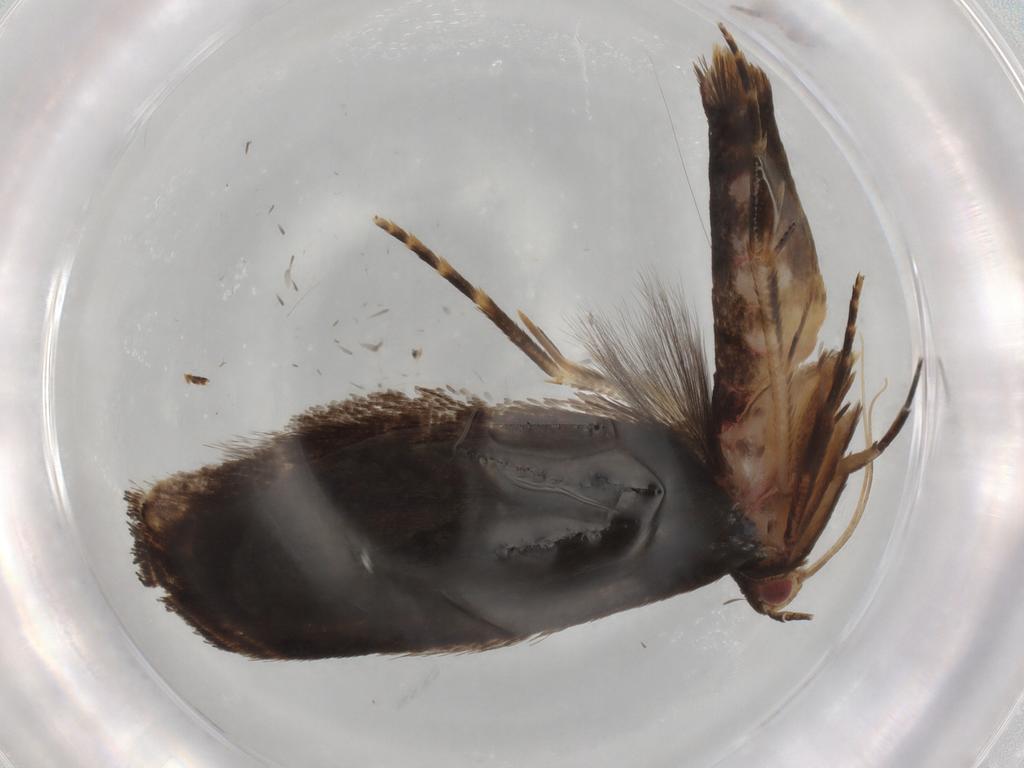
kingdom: Animalia
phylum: Arthropoda
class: Insecta
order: Lepidoptera
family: Gelechiidae
